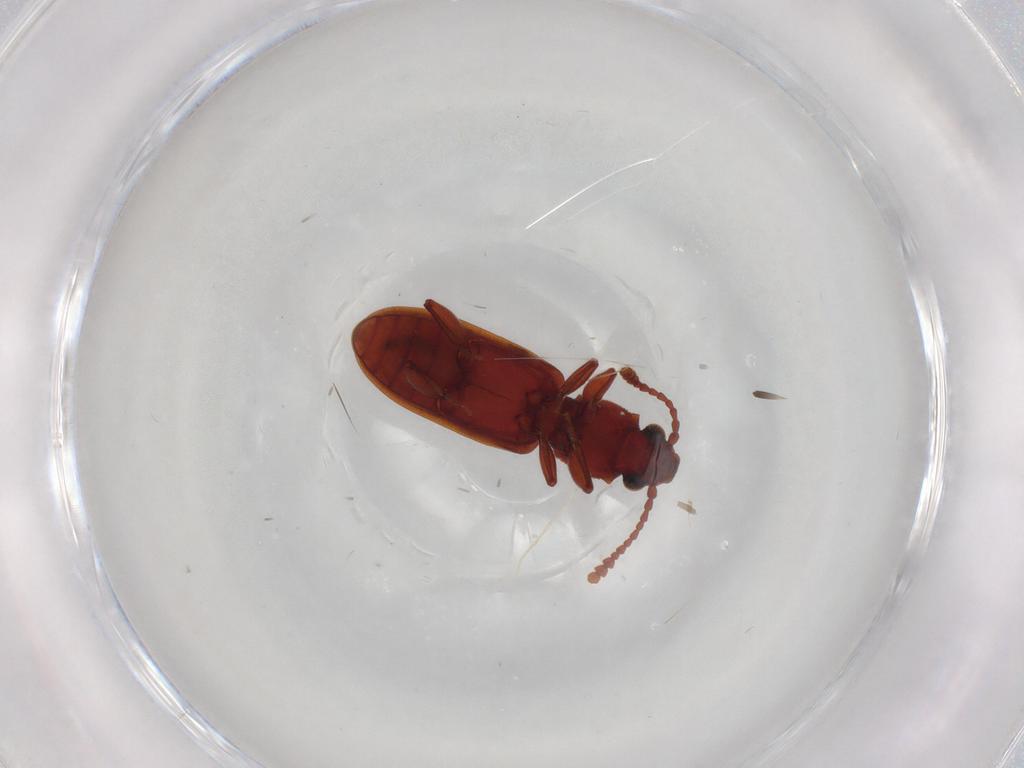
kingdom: Animalia
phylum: Arthropoda
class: Insecta
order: Coleoptera
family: Silvanidae
